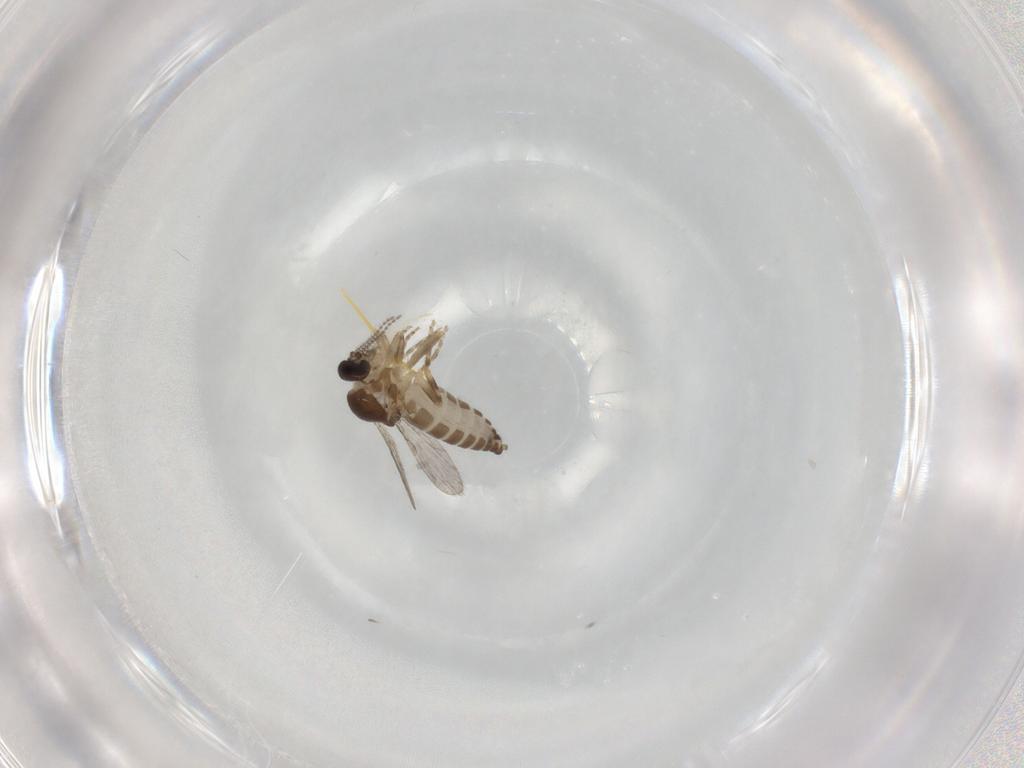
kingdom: Animalia
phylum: Arthropoda
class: Insecta
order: Diptera
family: Ceratopogonidae
